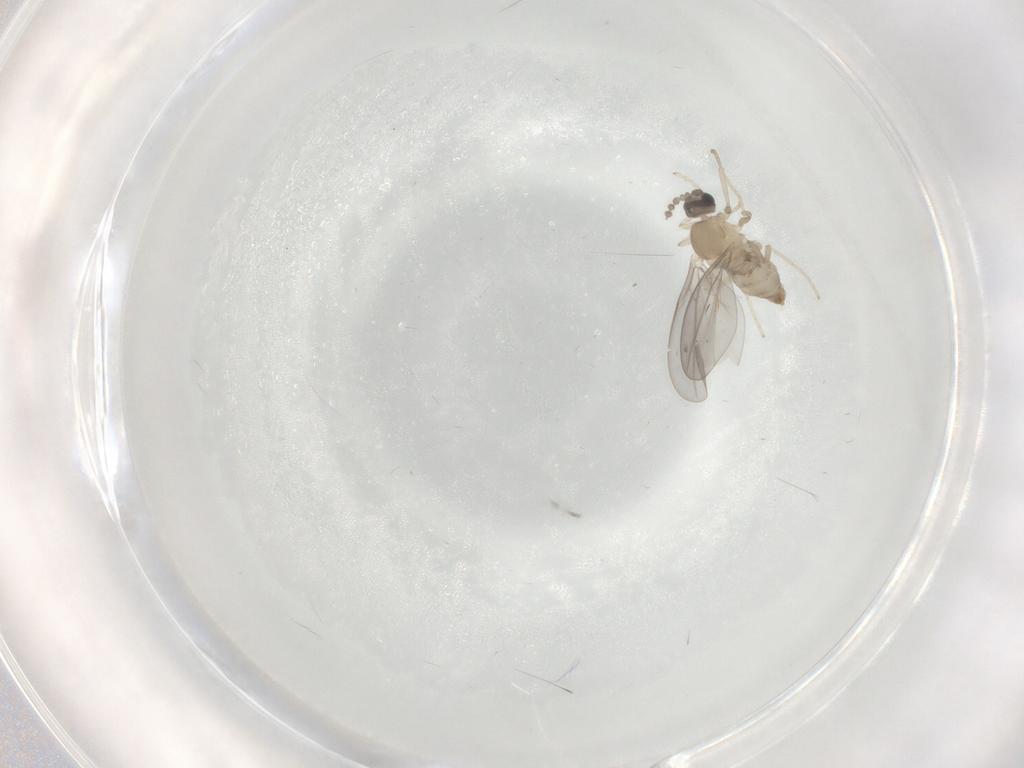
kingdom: Animalia
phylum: Arthropoda
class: Insecta
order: Diptera
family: Cecidomyiidae
